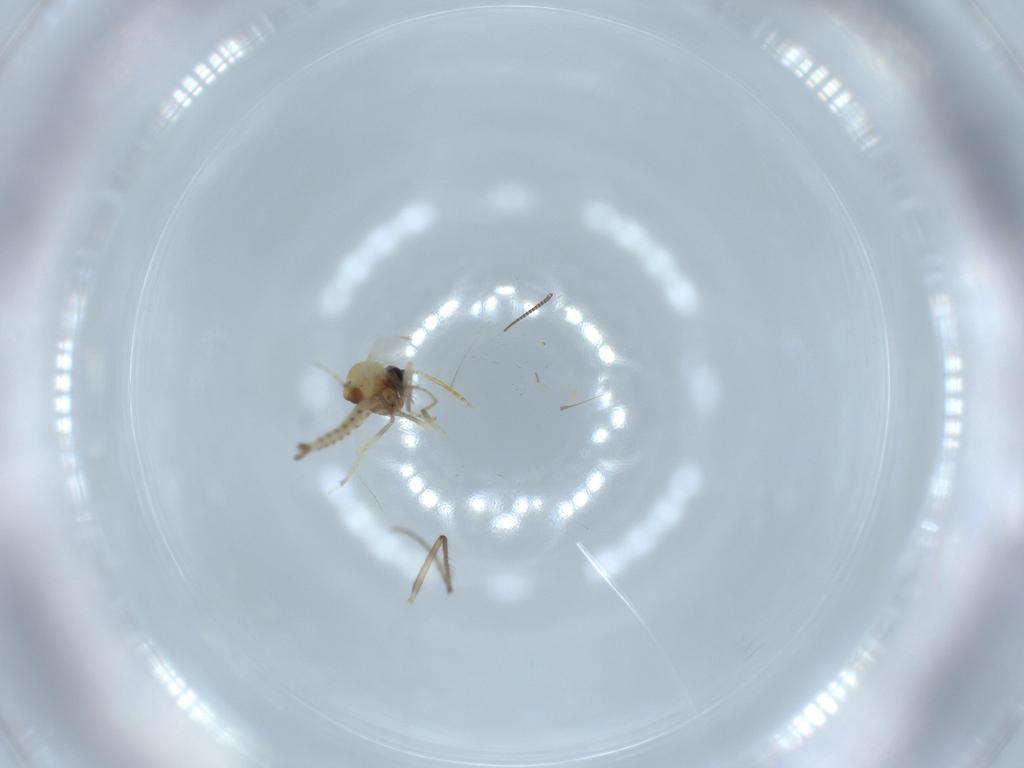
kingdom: Animalia
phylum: Arthropoda
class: Insecta
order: Diptera
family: Ceratopogonidae
